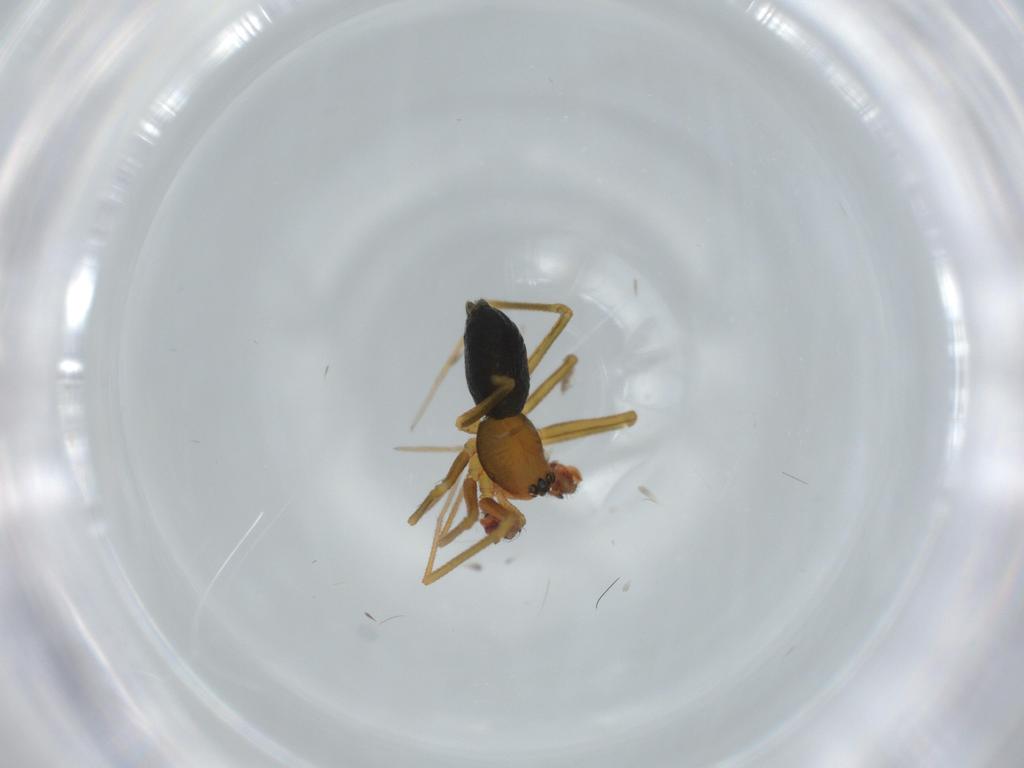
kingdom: Animalia
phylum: Arthropoda
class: Arachnida
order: Araneae
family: Linyphiidae
